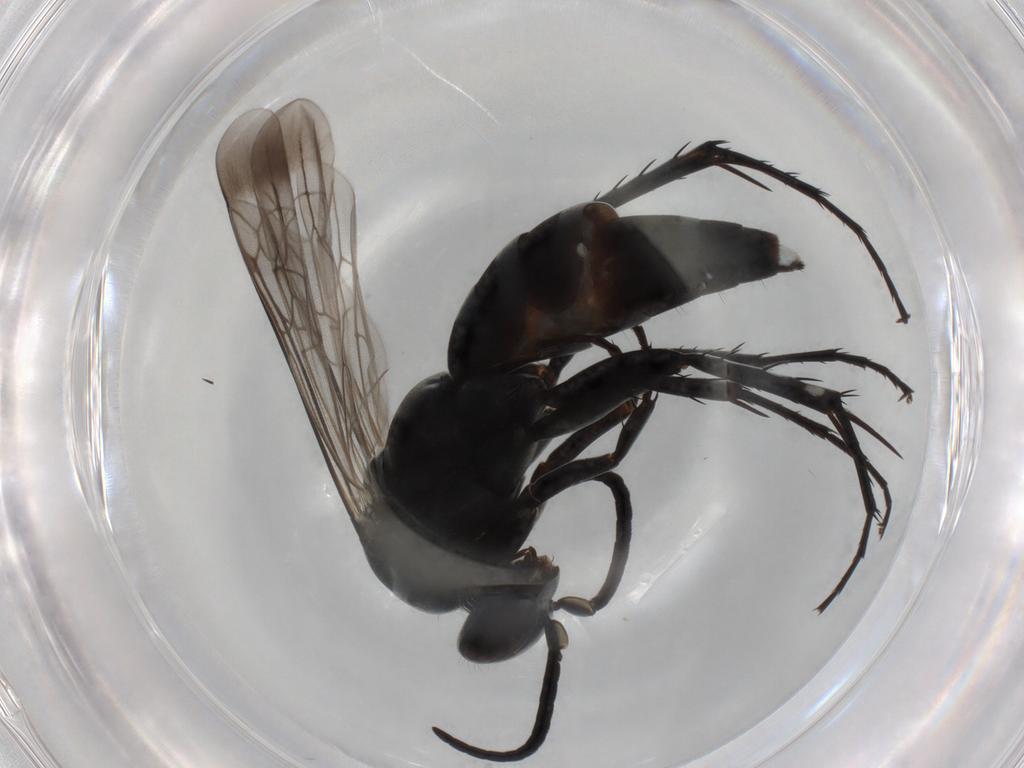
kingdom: Animalia
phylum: Arthropoda
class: Insecta
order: Hymenoptera
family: Pompilidae
